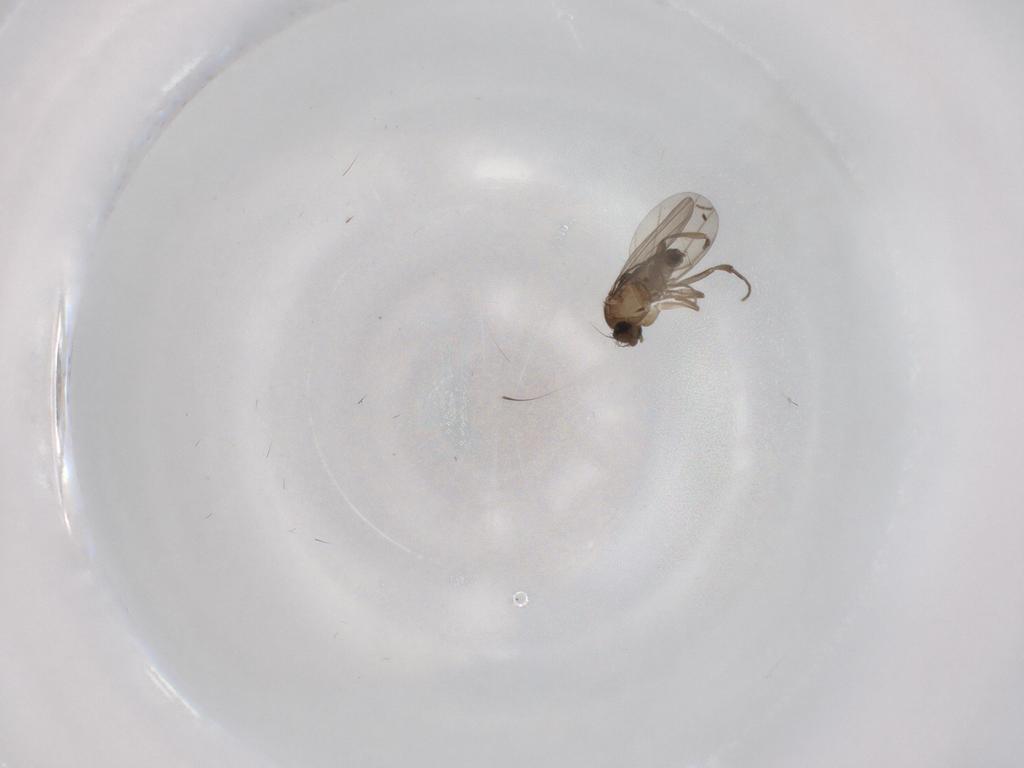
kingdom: Animalia
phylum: Arthropoda
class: Insecta
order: Diptera
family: Phoridae
